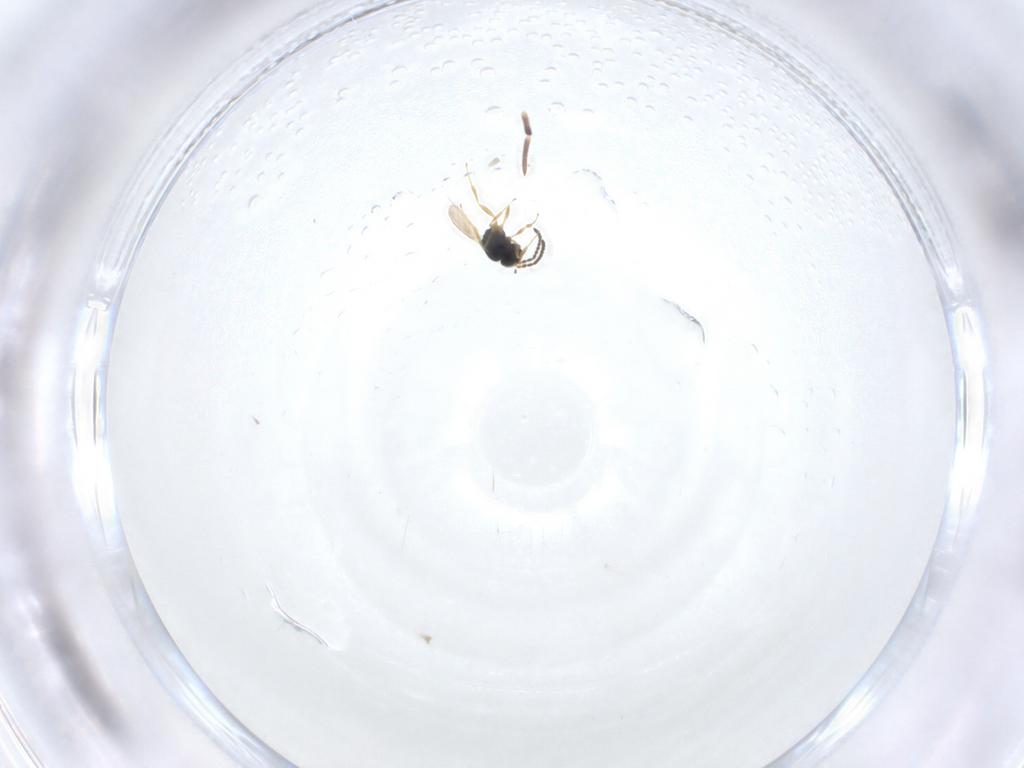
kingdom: Animalia
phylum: Arthropoda
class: Insecta
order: Hymenoptera
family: Scelionidae
